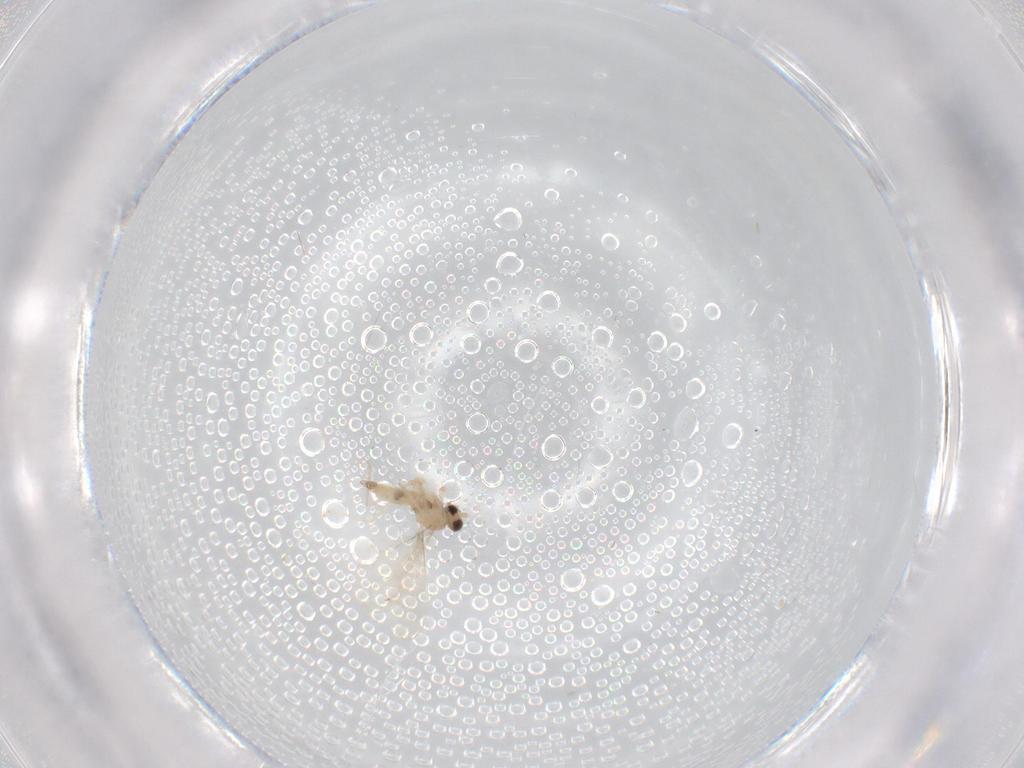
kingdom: Animalia
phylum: Arthropoda
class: Insecta
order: Diptera
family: Cecidomyiidae
